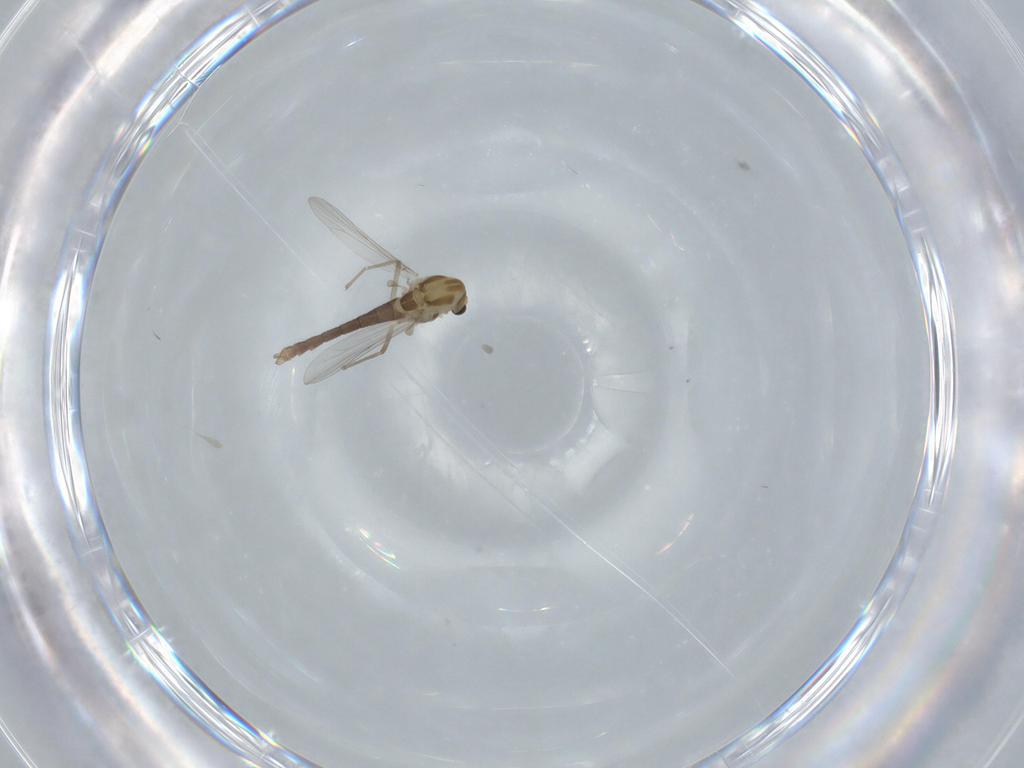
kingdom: Animalia
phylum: Arthropoda
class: Insecta
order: Diptera
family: Chironomidae
